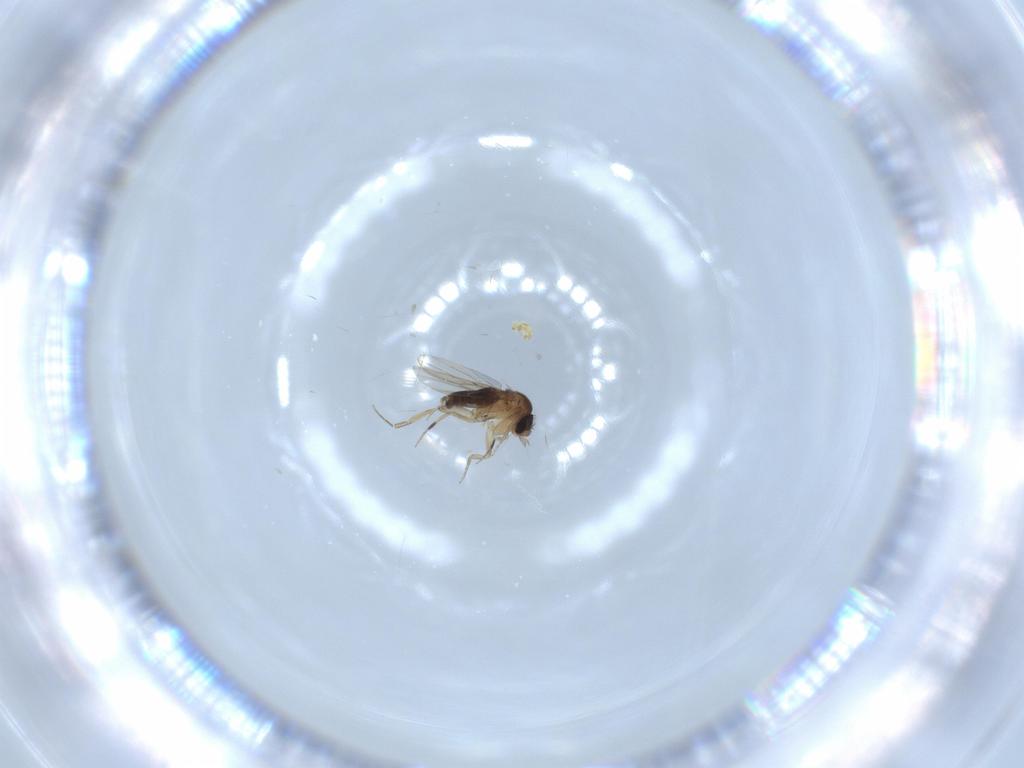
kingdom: Animalia
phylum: Arthropoda
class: Insecta
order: Diptera
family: Phoridae
